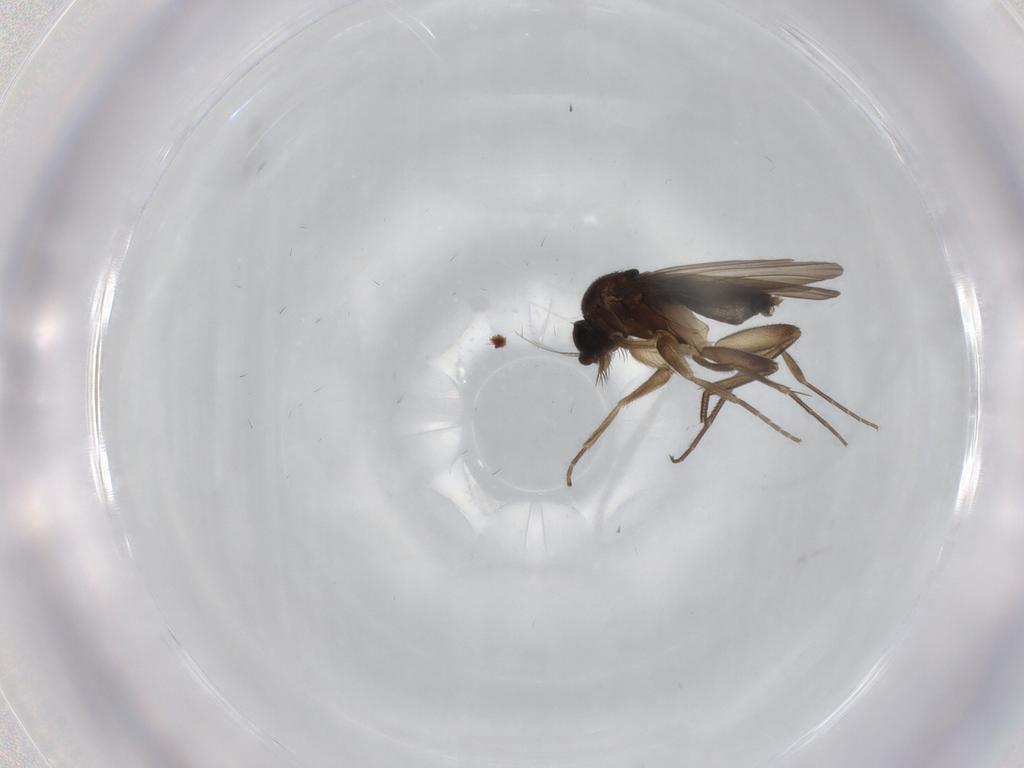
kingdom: Animalia
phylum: Arthropoda
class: Insecta
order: Diptera
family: Phoridae
